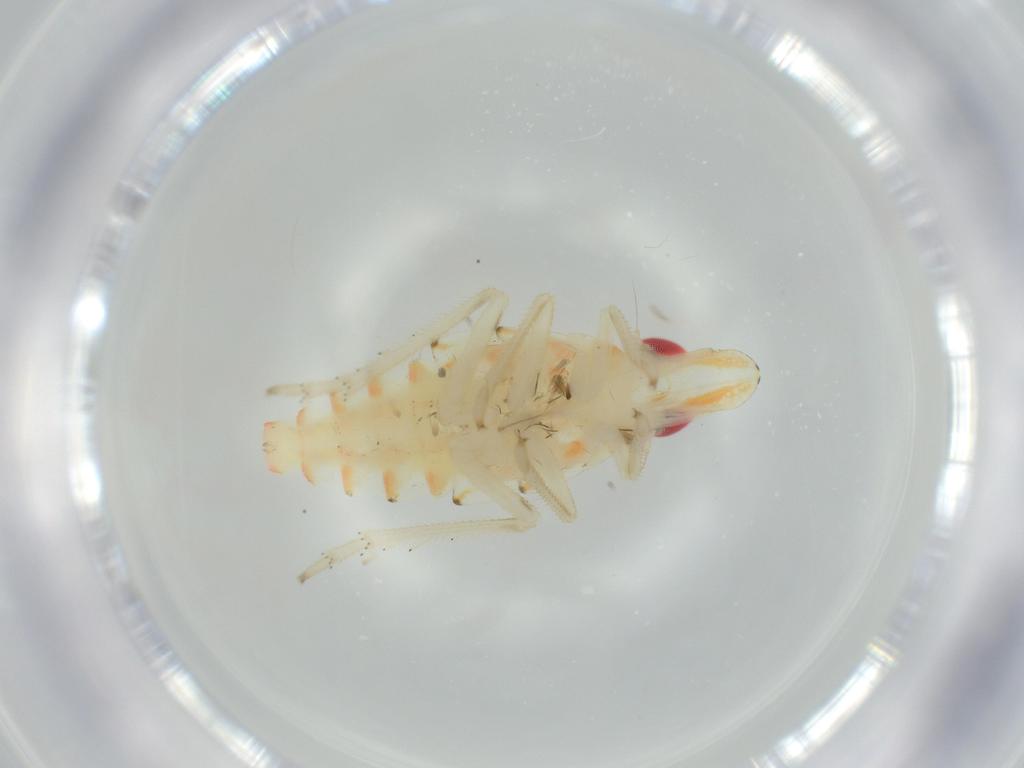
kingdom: Animalia
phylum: Arthropoda
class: Insecta
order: Hemiptera
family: Tropiduchidae
